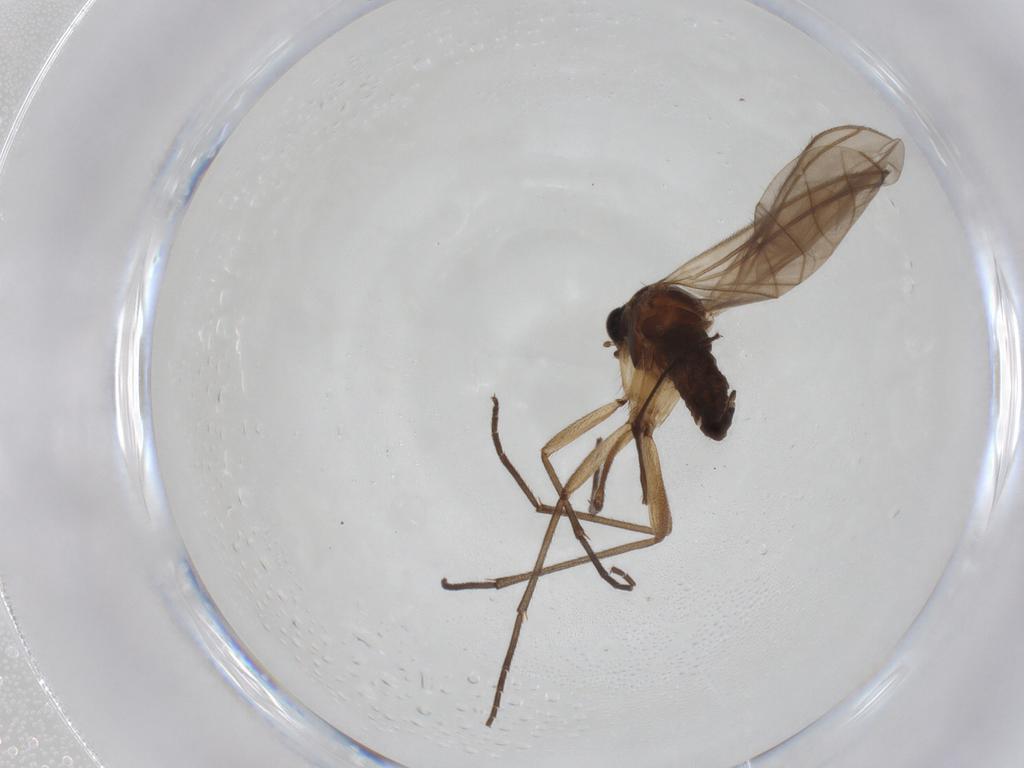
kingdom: Animalia
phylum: Arthropoda
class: Insecta
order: Diptera
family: Sciaridae
